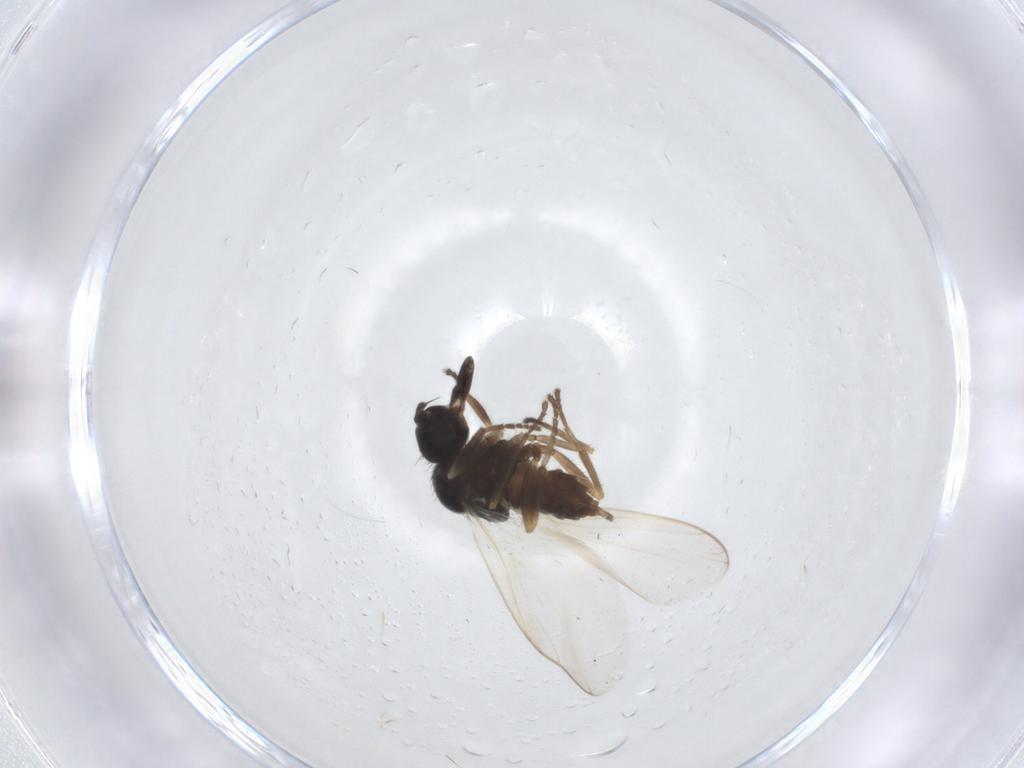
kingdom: Animalia
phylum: Arthropoda
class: Insecta
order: Diptera
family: Hybotidae
